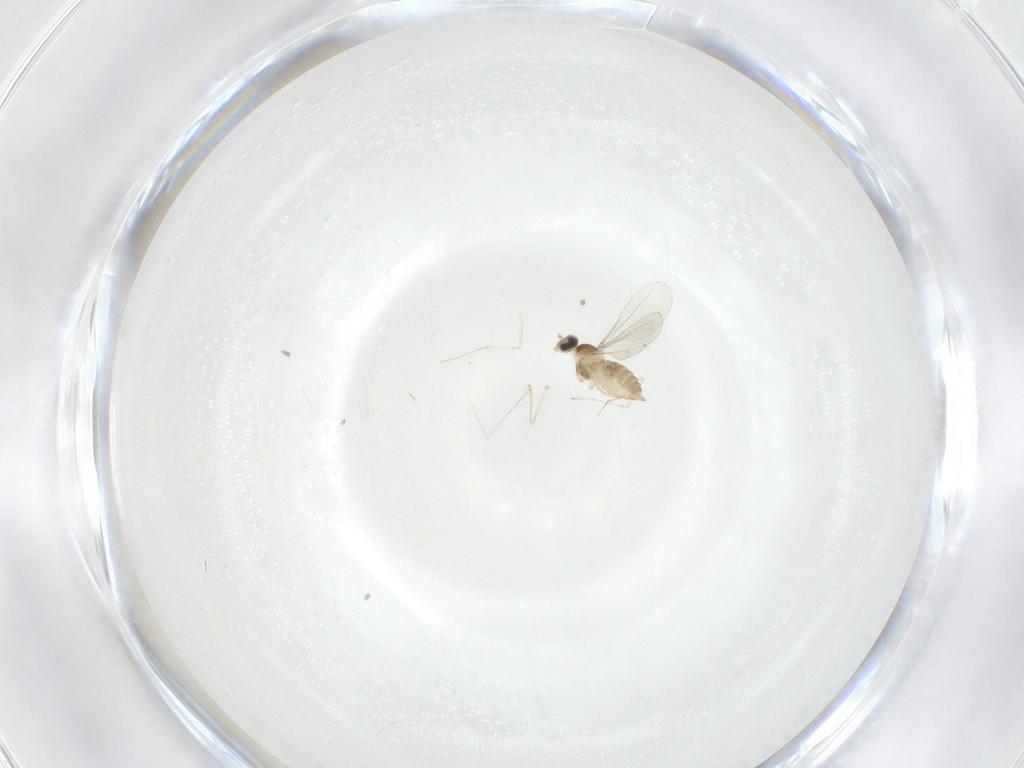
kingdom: Animalia
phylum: Arthropoda
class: Insecta
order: Diptera
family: Cecidomyiidae
